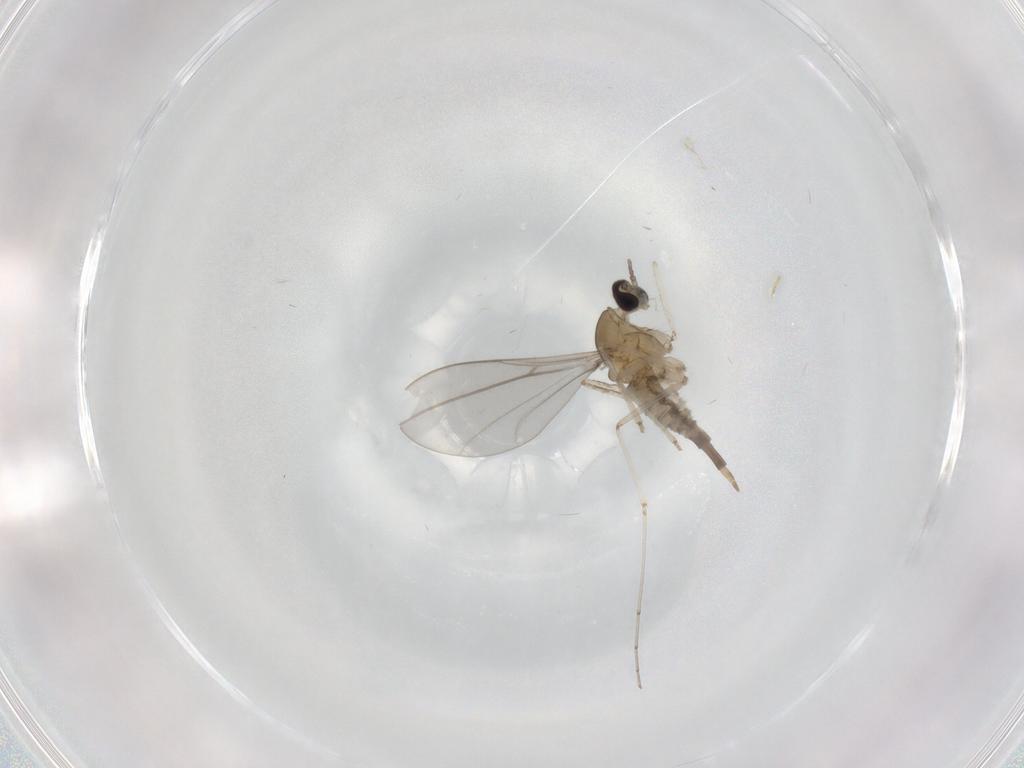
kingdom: Animalia
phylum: Arthropoda
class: Insecta
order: Diptera
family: Cecidomyiidae
